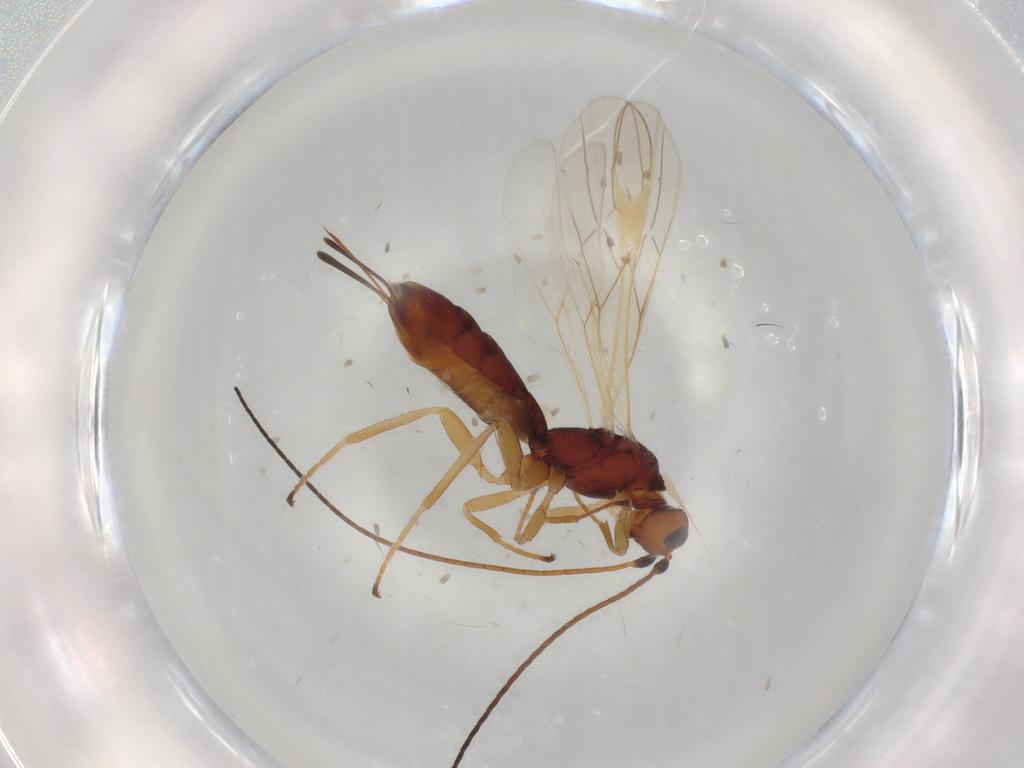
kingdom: Animalia
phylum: Arthropoda
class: Insecta
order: Hymenoptera
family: Braconidae
